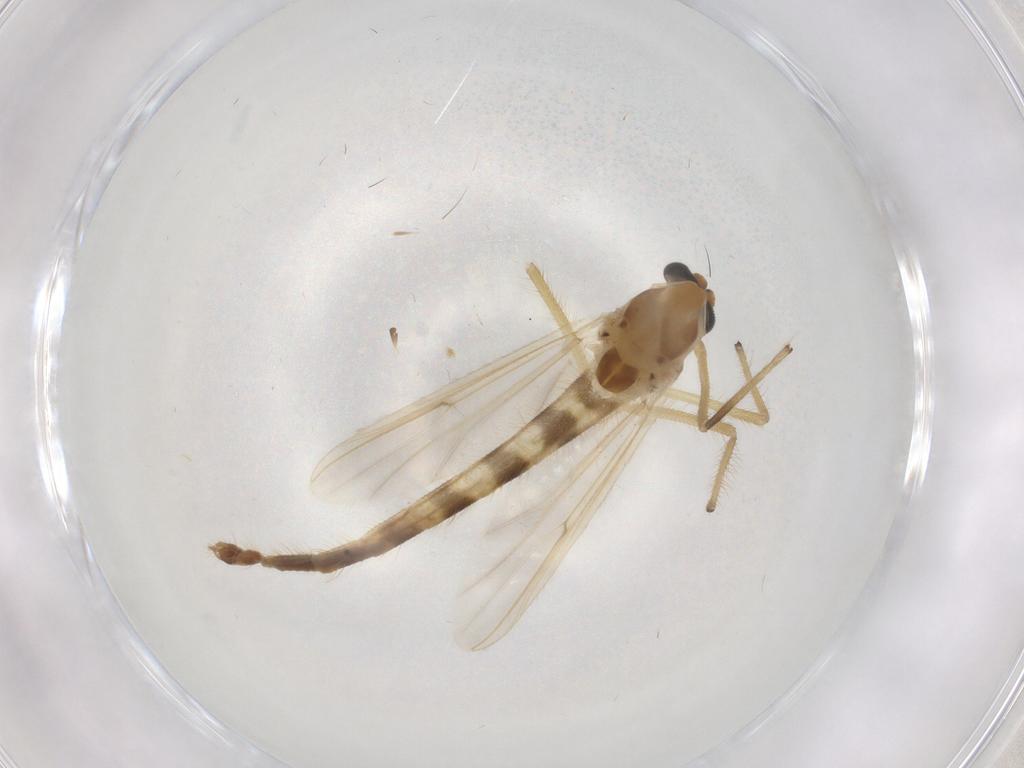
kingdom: Animalia
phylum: Arthropoda
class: Insecta
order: Diptera
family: Chironomidae
